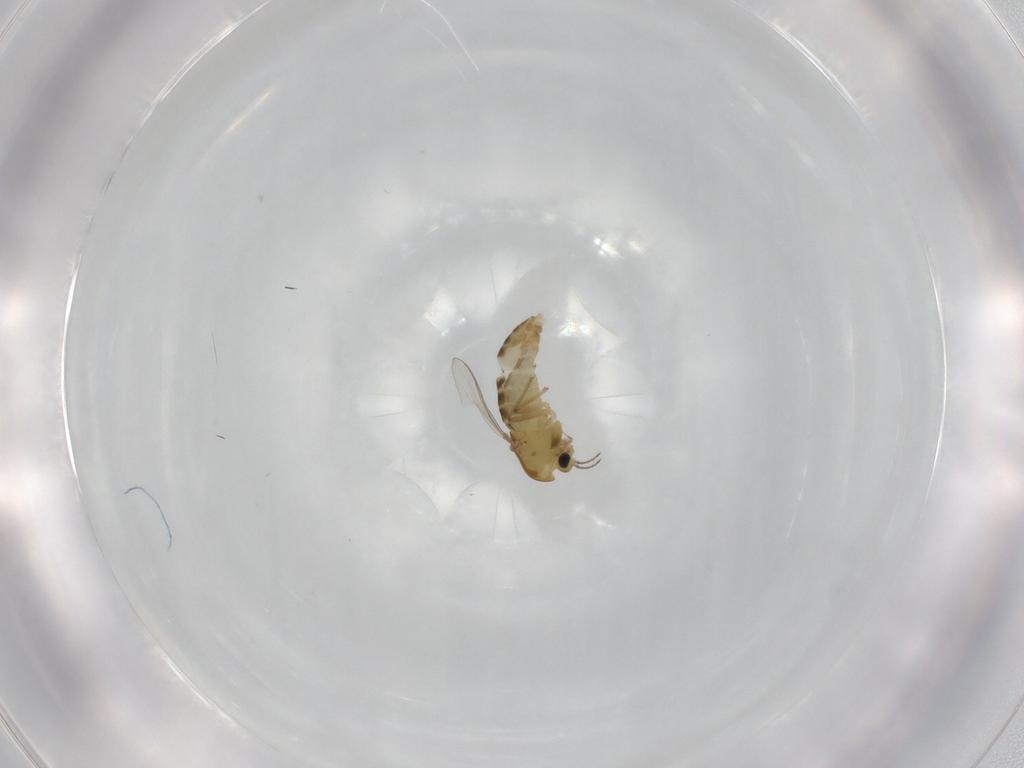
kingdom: Animalia
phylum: Arthropoda
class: Insecta
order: Diptera
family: Chironomidae
